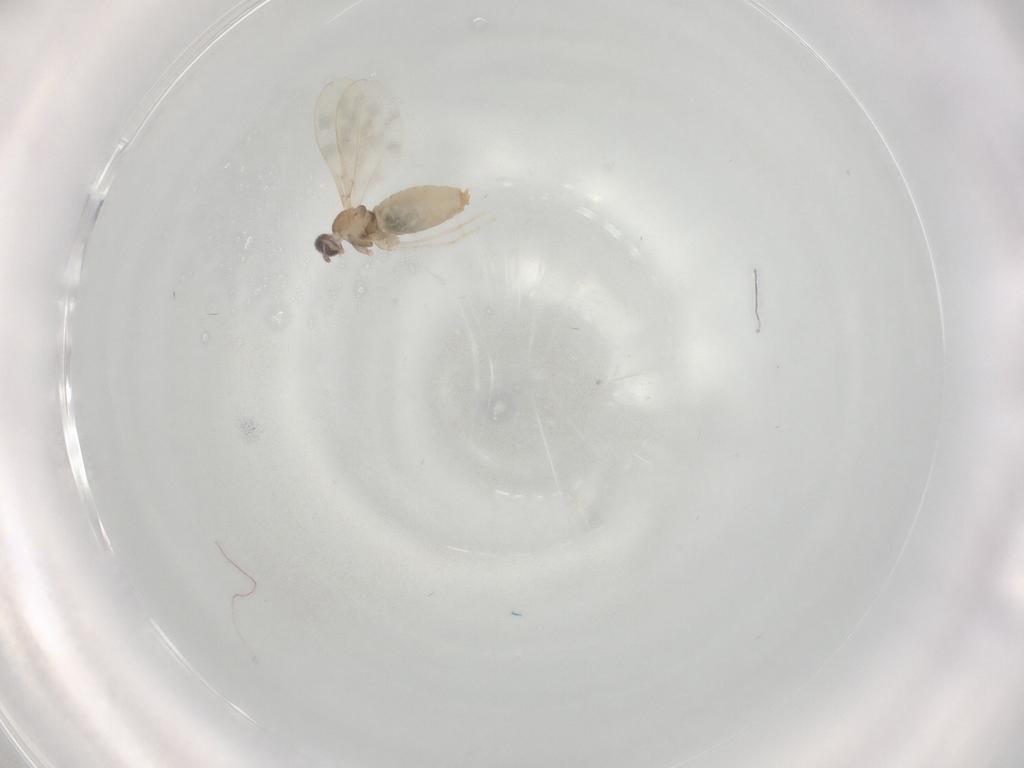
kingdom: Animalia
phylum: Arthropoda
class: Insecta
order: Diptera
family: Cecidomyiidae
